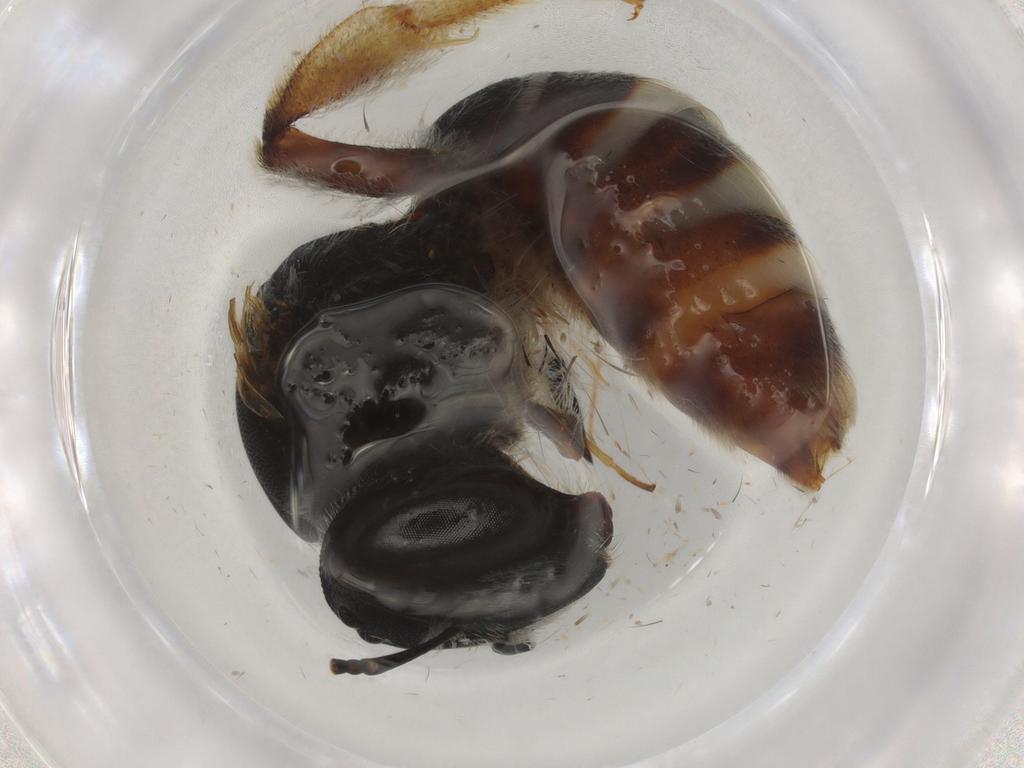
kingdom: Animalia
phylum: Arthropoda
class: Insecta
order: Hymenoptera
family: Halictidae
